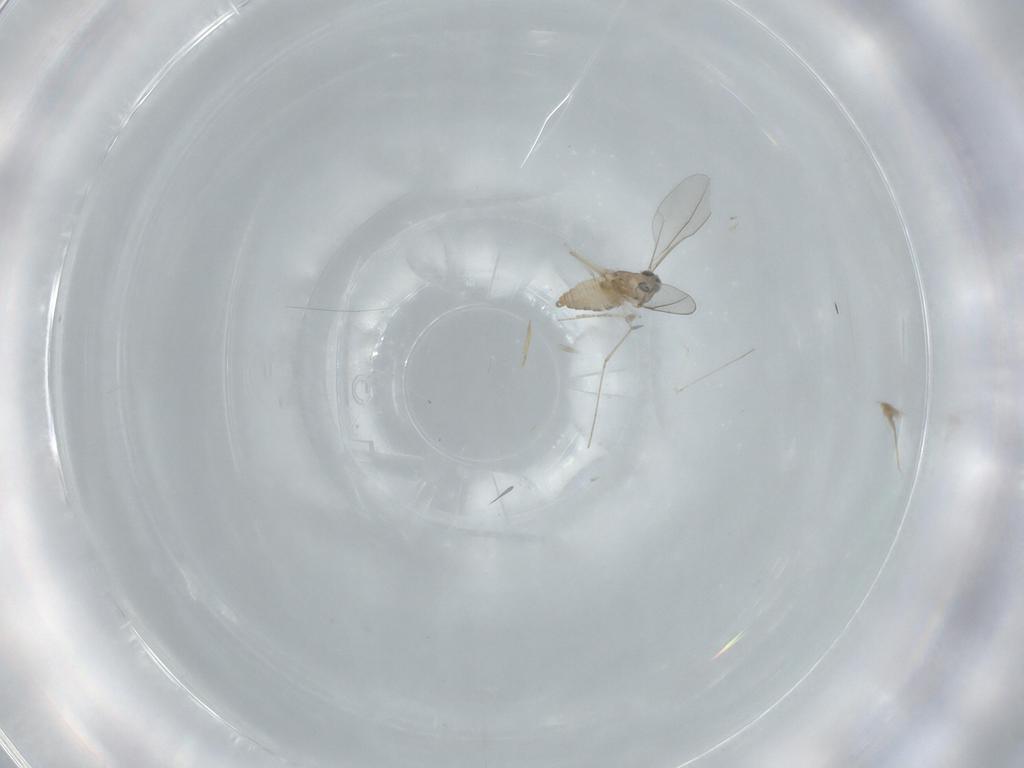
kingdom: Animalia
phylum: Arthropoda
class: Insecta
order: Diptera
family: Cecidomyiidae
